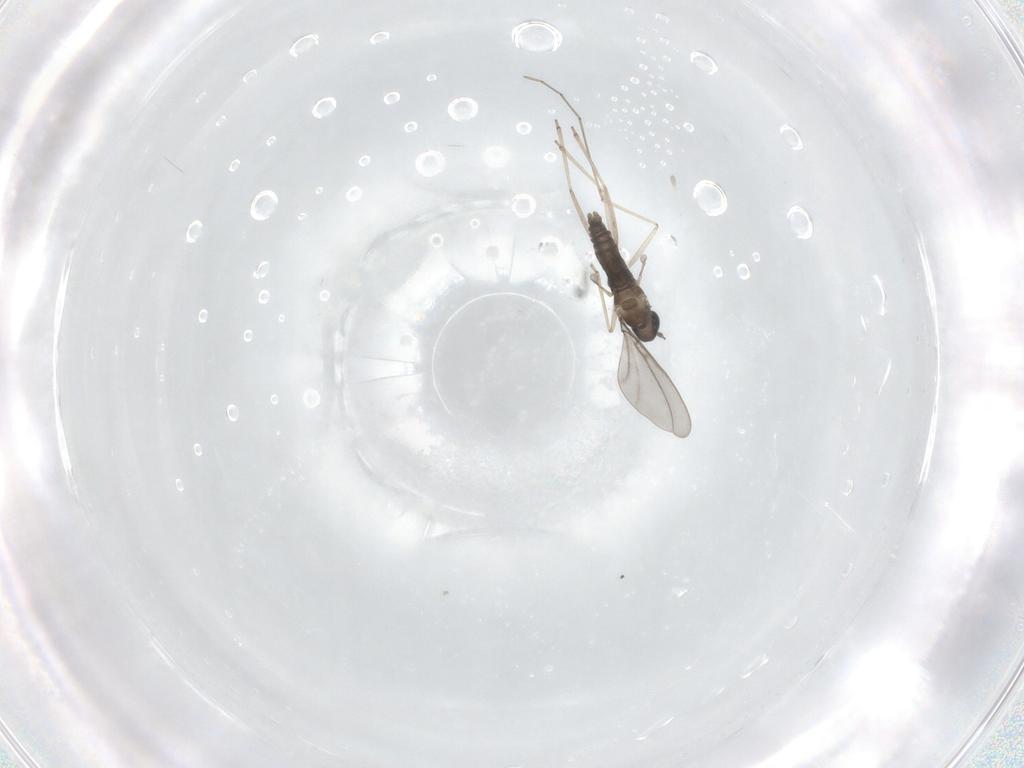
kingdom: Animalia
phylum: Arthropoda
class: Insecta
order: Diptera
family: Cecidomyiidae
